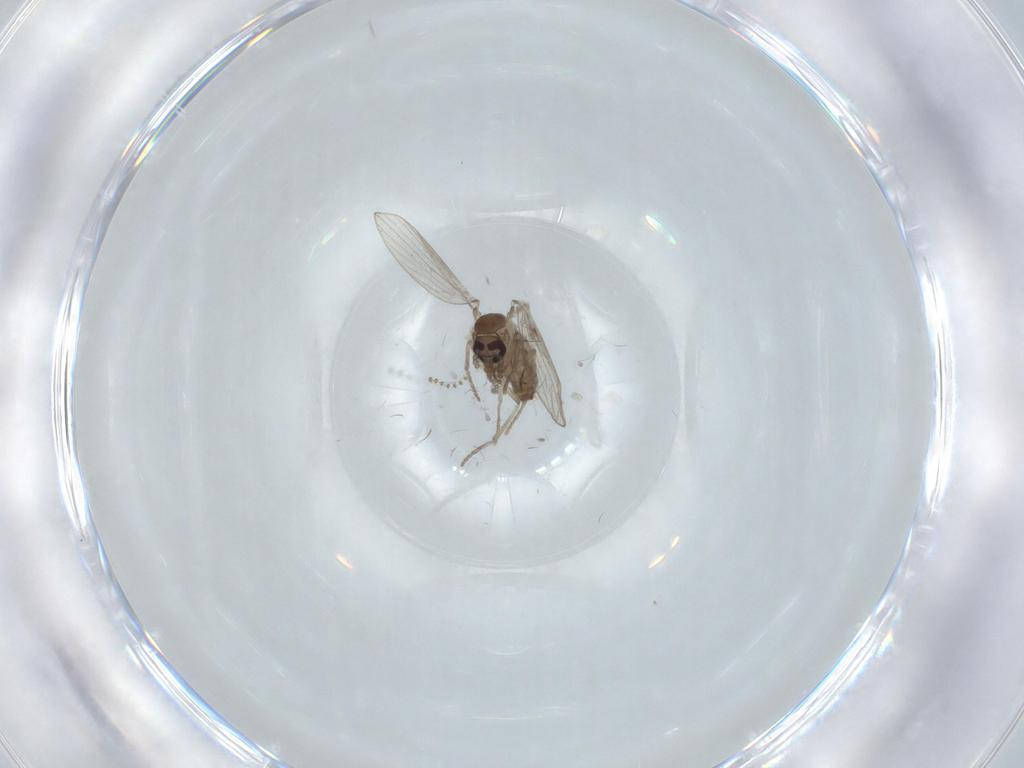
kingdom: Animalia
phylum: Arthropoda
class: Insecta
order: Diptera
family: Psychodidae
